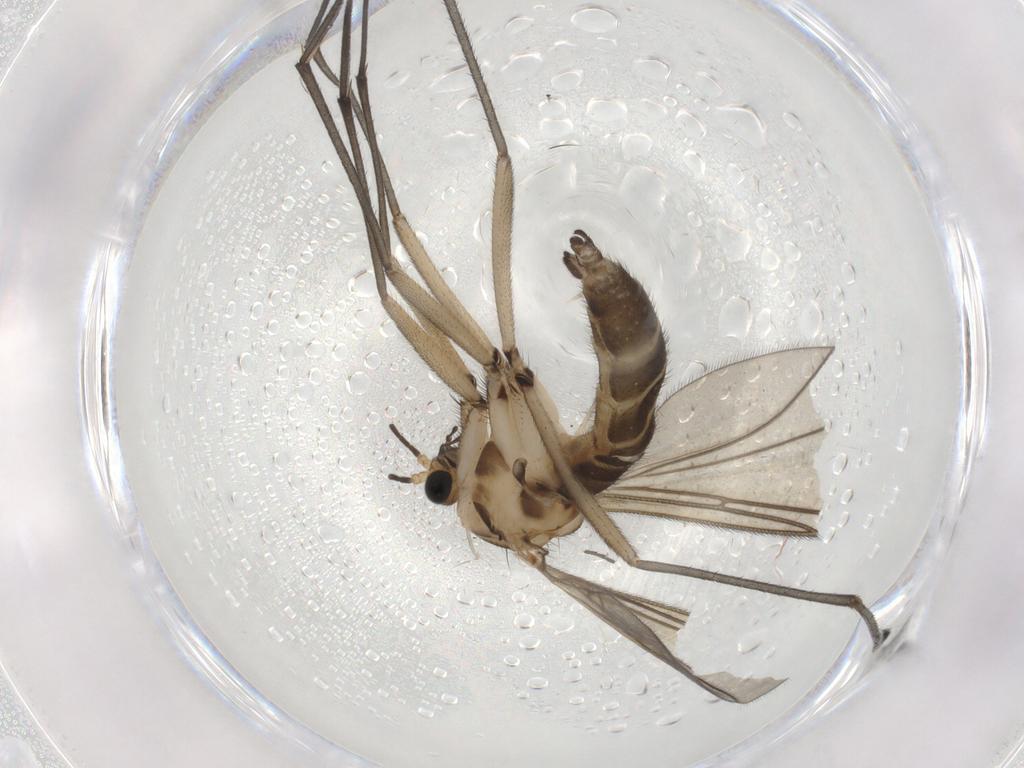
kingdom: Animalia
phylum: Arthropoda
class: Insecta
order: Diptera
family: Sciaridae
